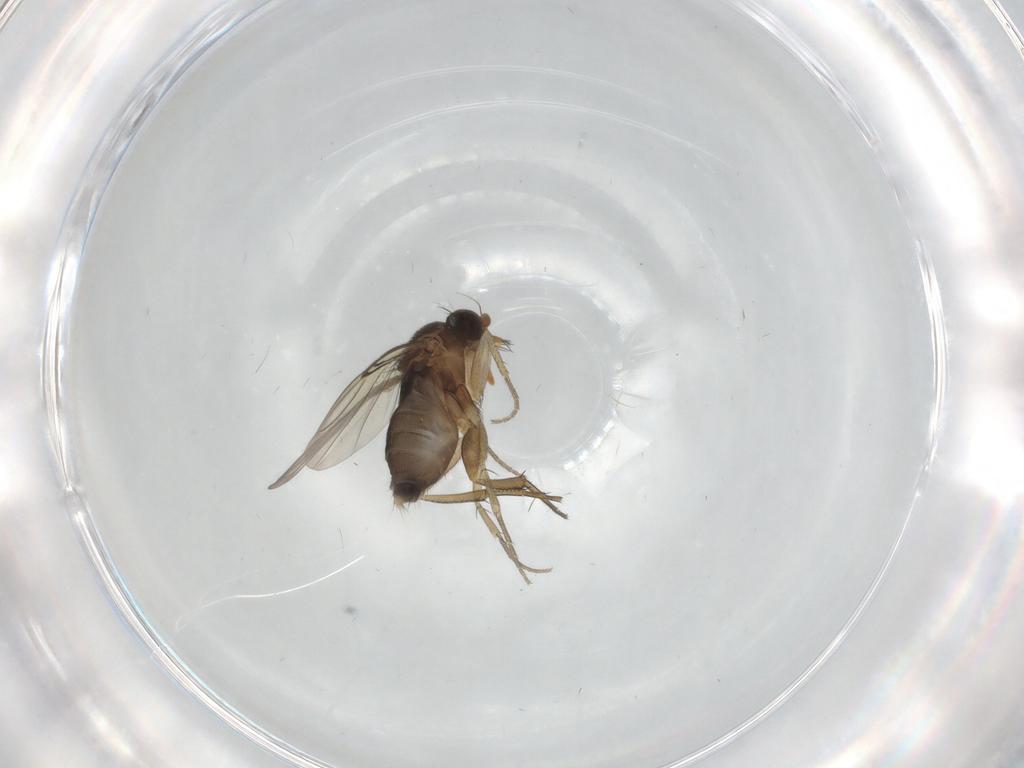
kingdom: Animalia
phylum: Arthropoda
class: Insecta
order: Diptera
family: Phoridae
